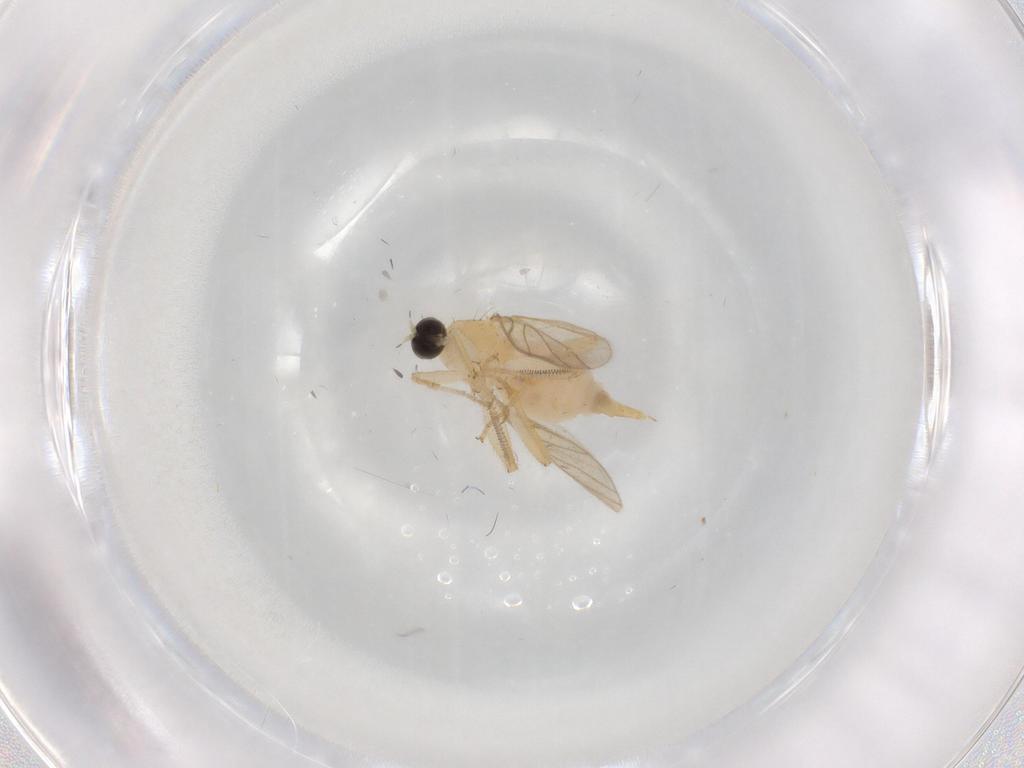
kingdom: Animalia
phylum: Arthropoda
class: Insecta
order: Diptera
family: Hybotidae
